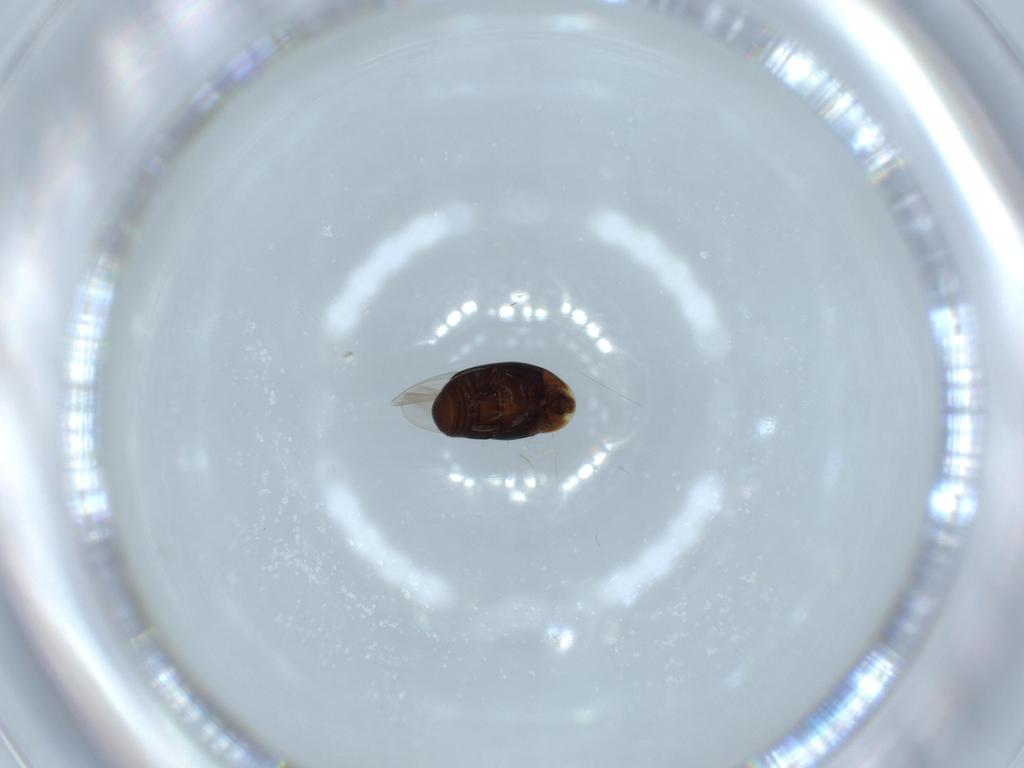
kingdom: Animalia
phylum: Arthropoda
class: Insecta
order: Coleoptera
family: Corylophidae
